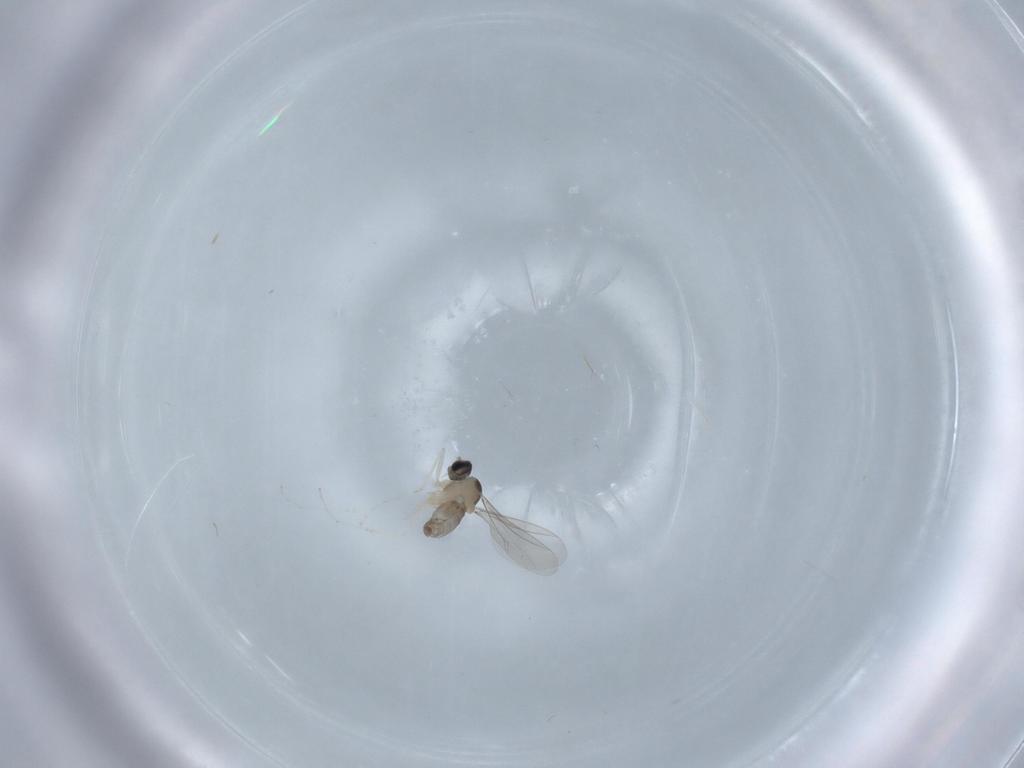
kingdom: Animalia
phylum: Arthropoda
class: Insecta
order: Diptera
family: Cecidomyiidae
